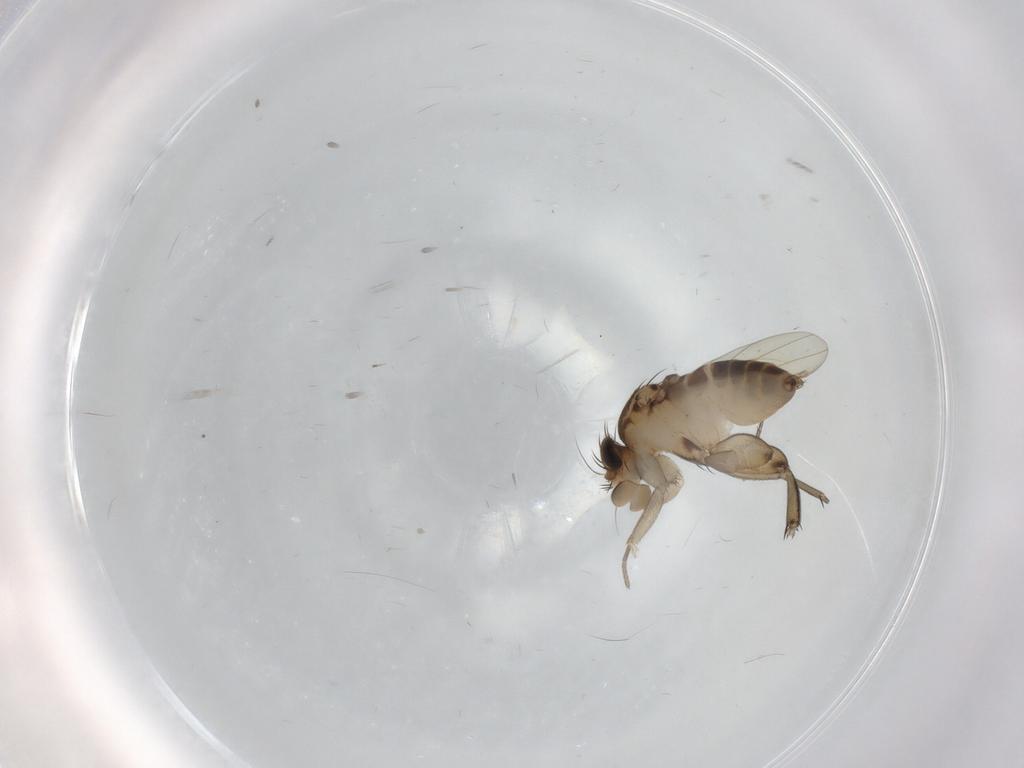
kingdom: Animalia
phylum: Arthropoda
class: Insecta
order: Diptera
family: Phoridae
